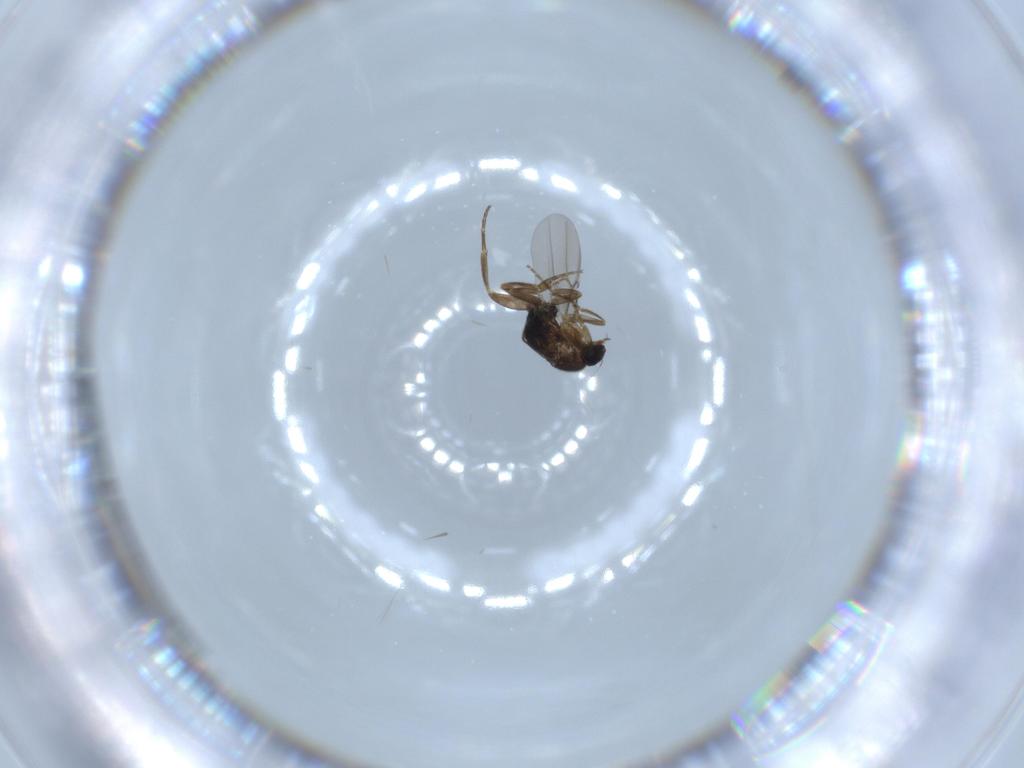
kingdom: Animalia
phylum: Arthropoda
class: Insecta
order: Diptera
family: Phoridae
